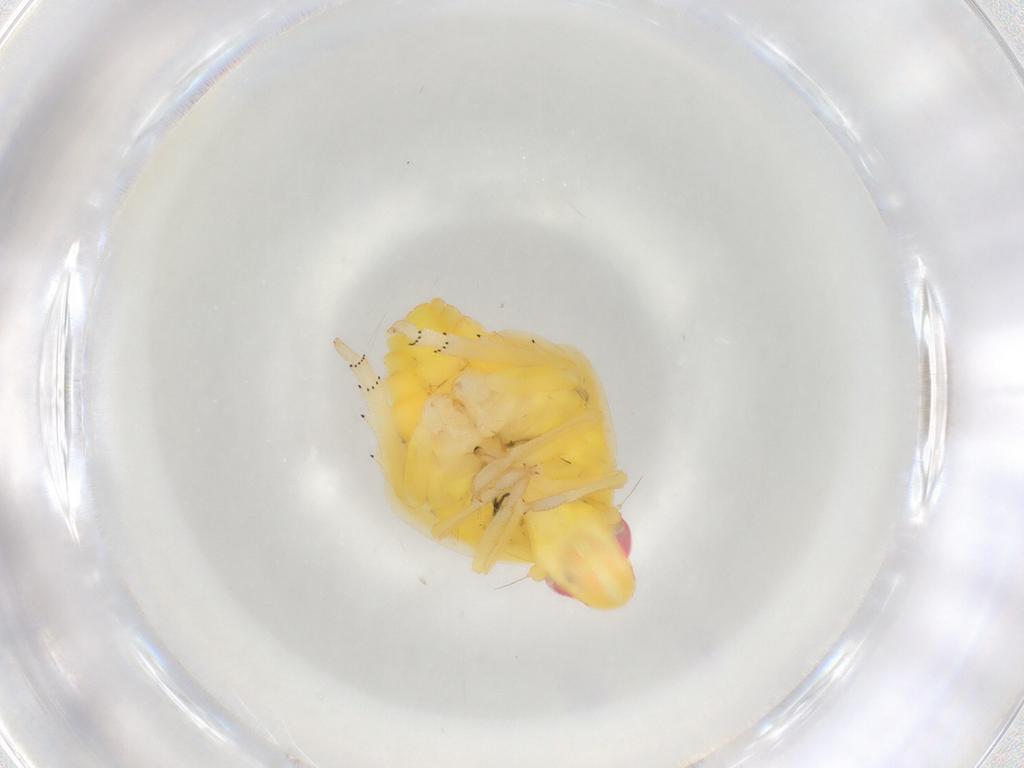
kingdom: Animalia
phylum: Arthropoda
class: Insecta
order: Hemiptera
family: Tropiduchidae
